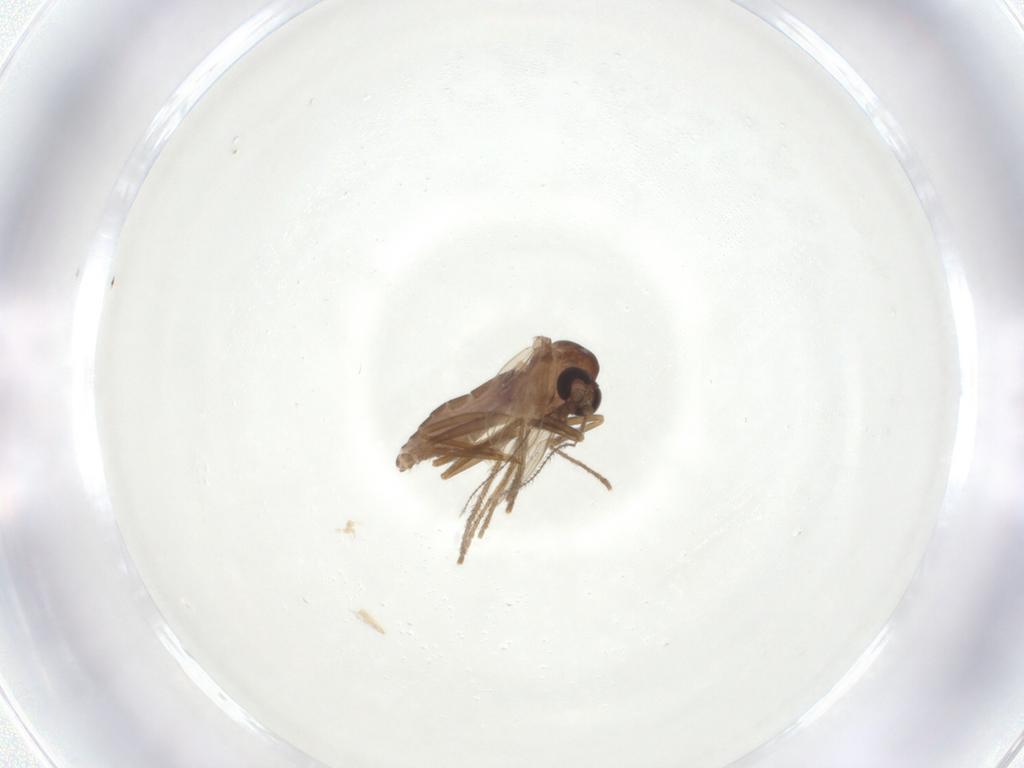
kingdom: Animalia
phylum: Arthropoda
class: Insecta
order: Diptera
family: Corethrellidae
